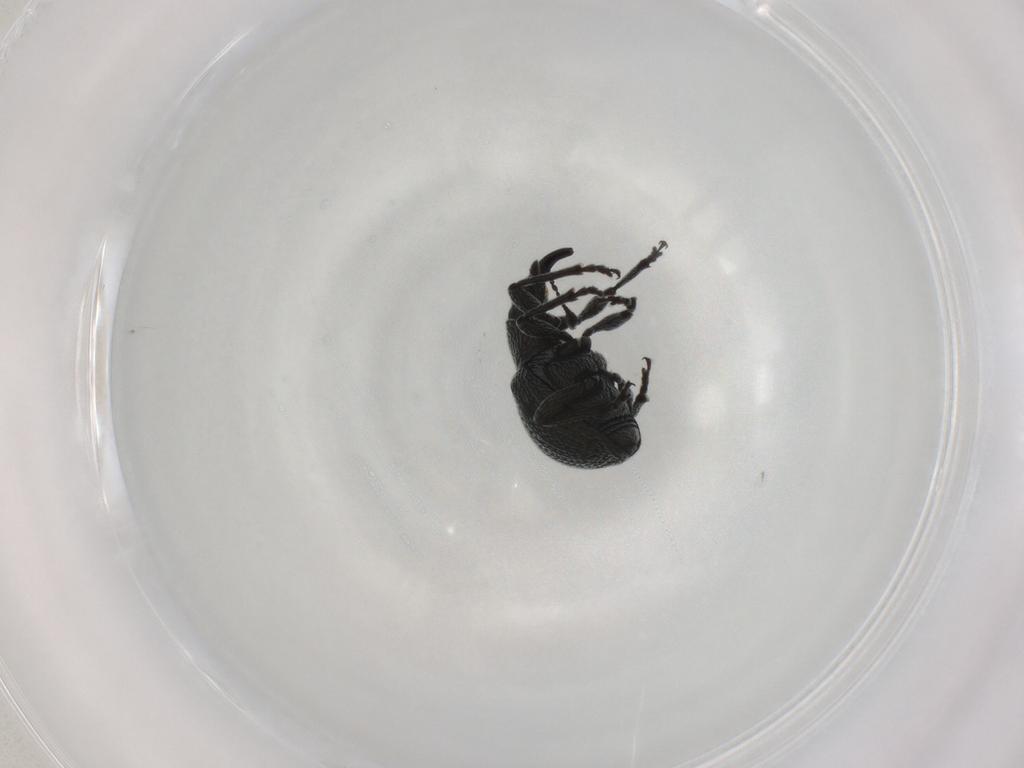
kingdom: Animalia
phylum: Arthropoda
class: Insecta
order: Coleoptera
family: Brentidae
